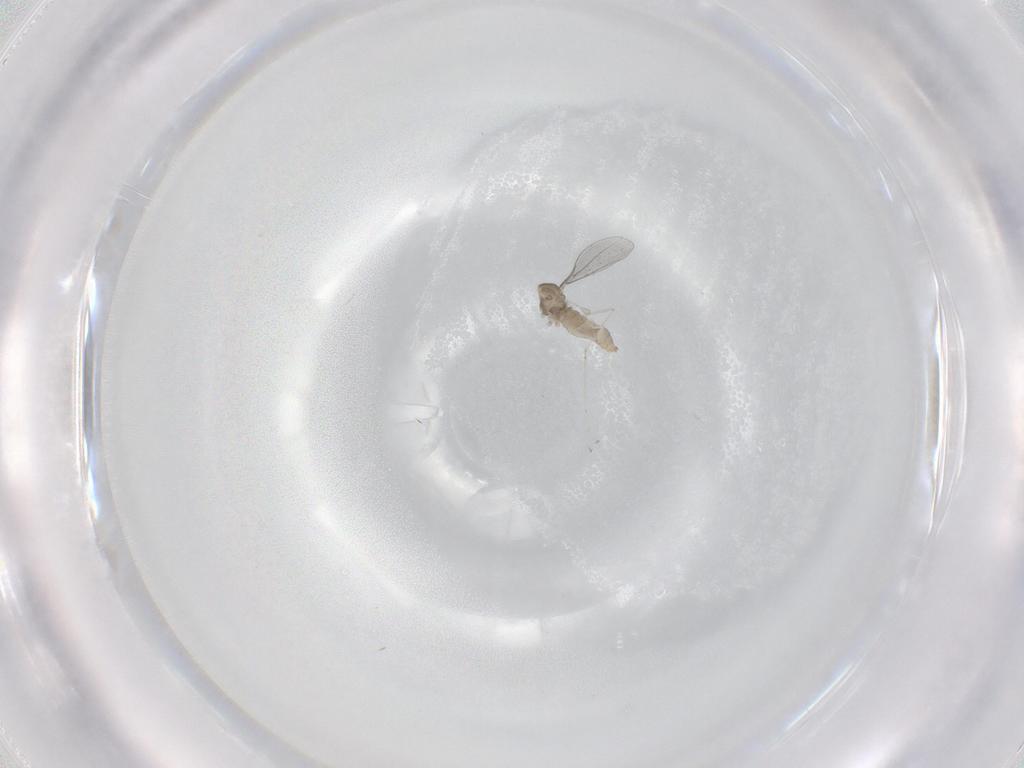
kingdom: Animalia
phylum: Arthropoda
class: Insecta
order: Diptera
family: Cecidomyiidae
